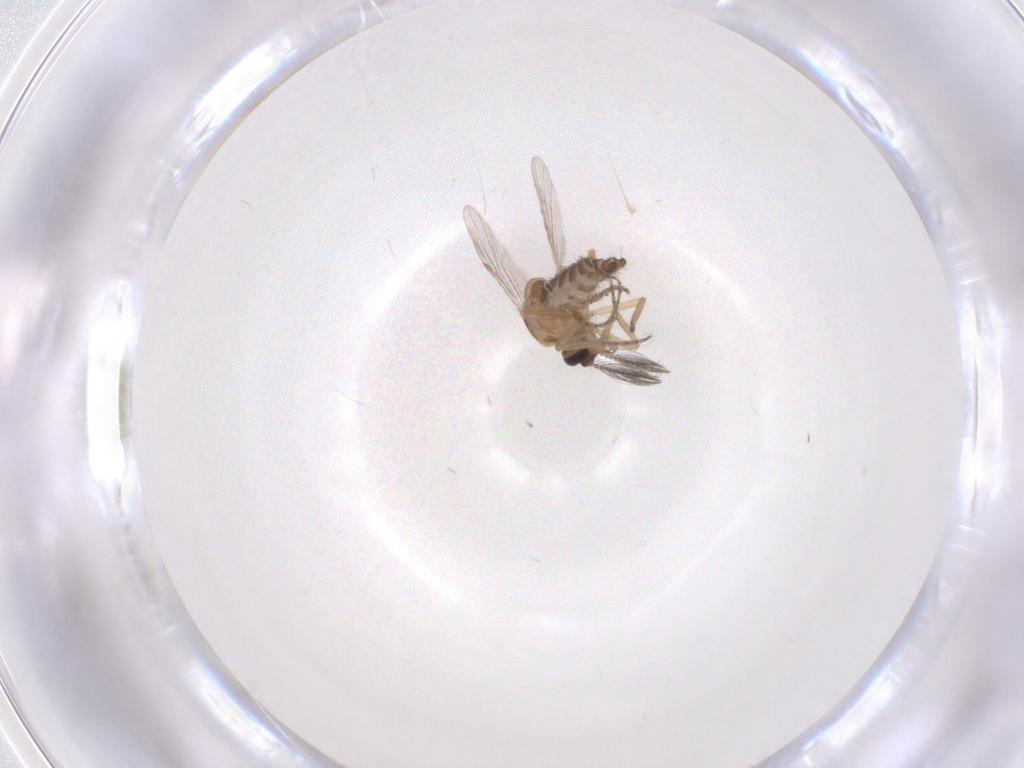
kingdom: Animalia
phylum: Arthropoda
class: Insecta
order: Diptera
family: Ceratopogonidae
